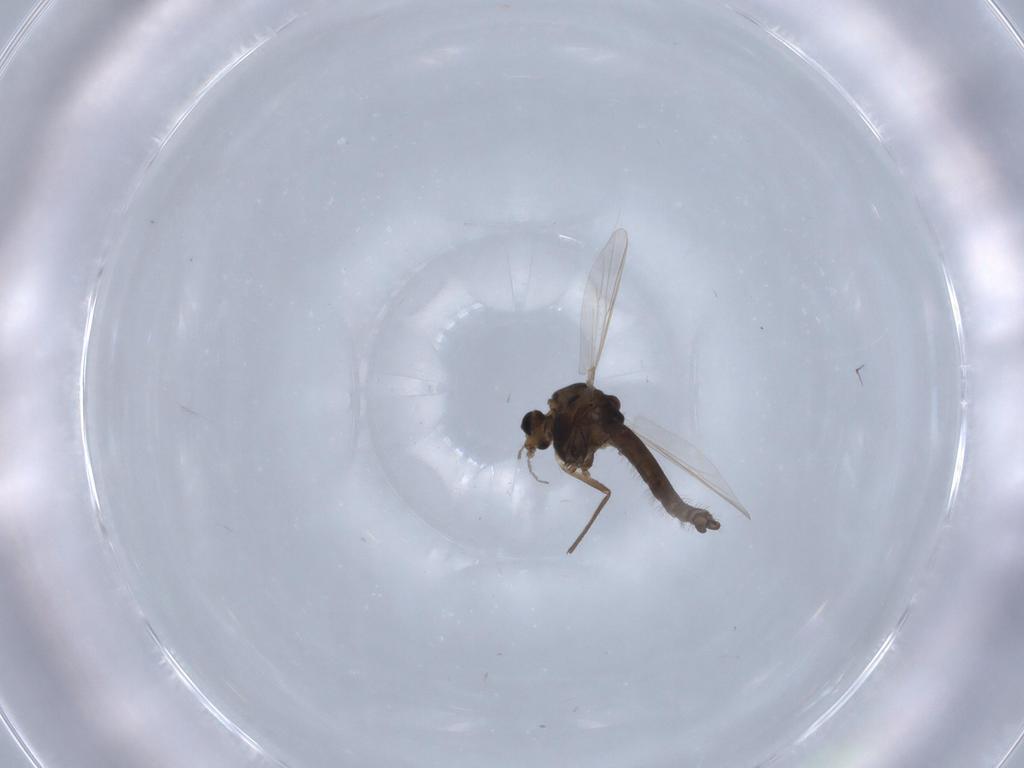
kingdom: Animalia
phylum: Arthropoda
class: Insecta
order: Diptera
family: Chironomidae
